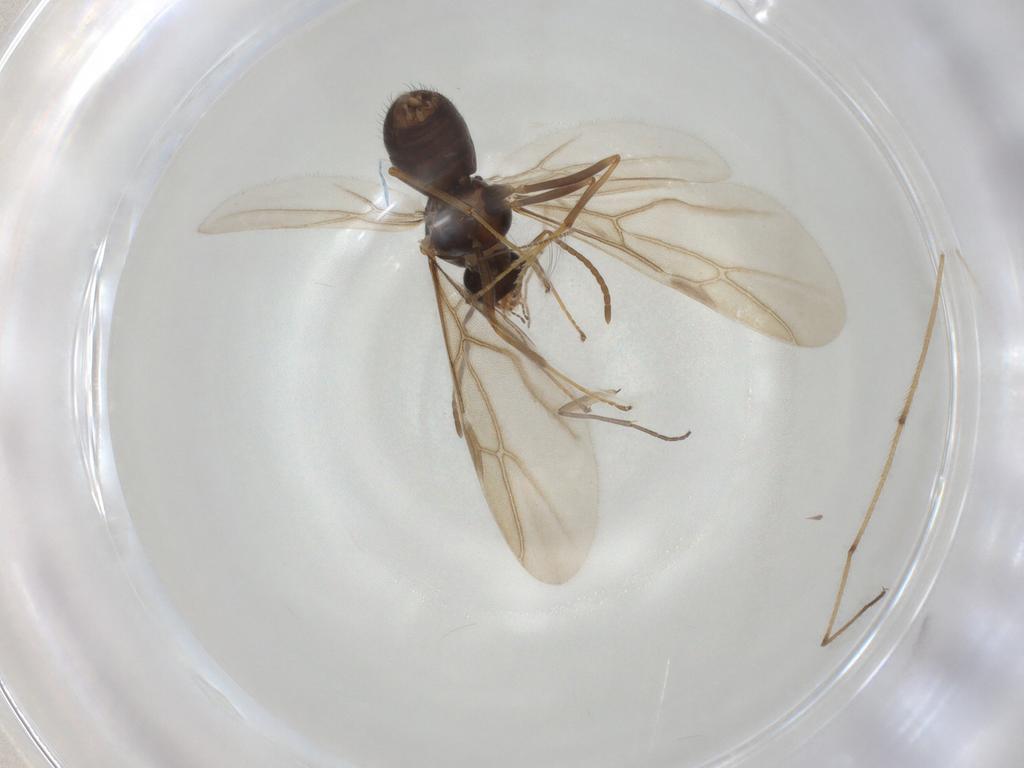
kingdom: Animalia
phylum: Arthropoda
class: Insecta
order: Hymenoptera
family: Formicidae
